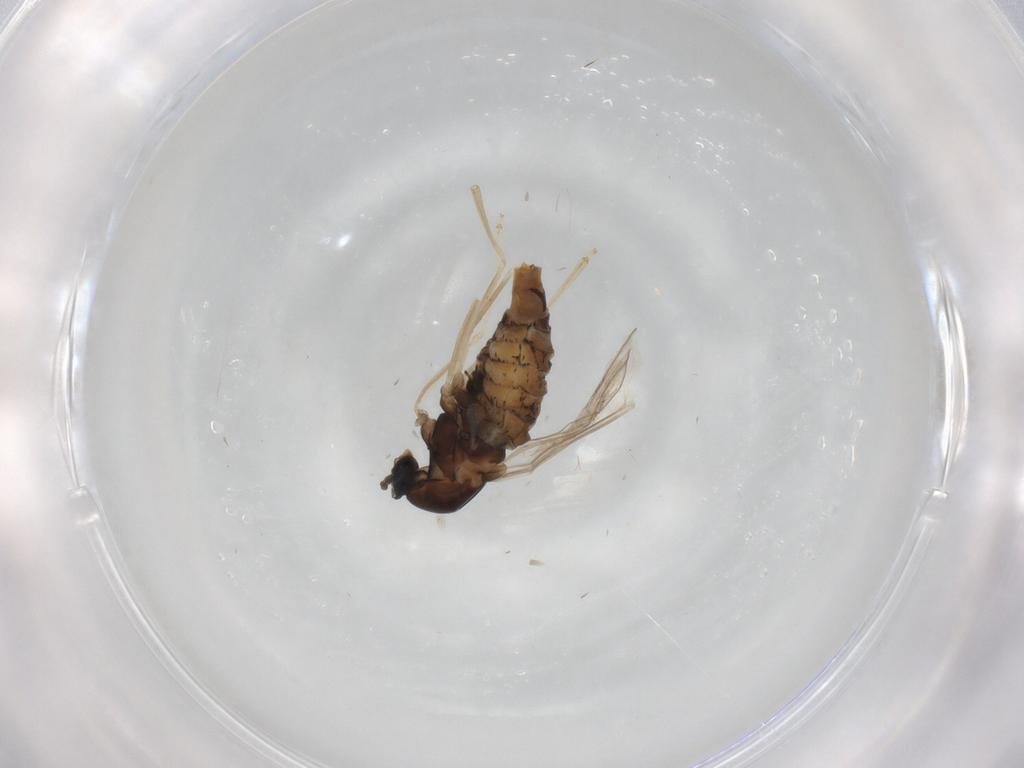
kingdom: Animalia
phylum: Arthropoda
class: Insecta
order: Diptera
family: Cecidomyiidae
